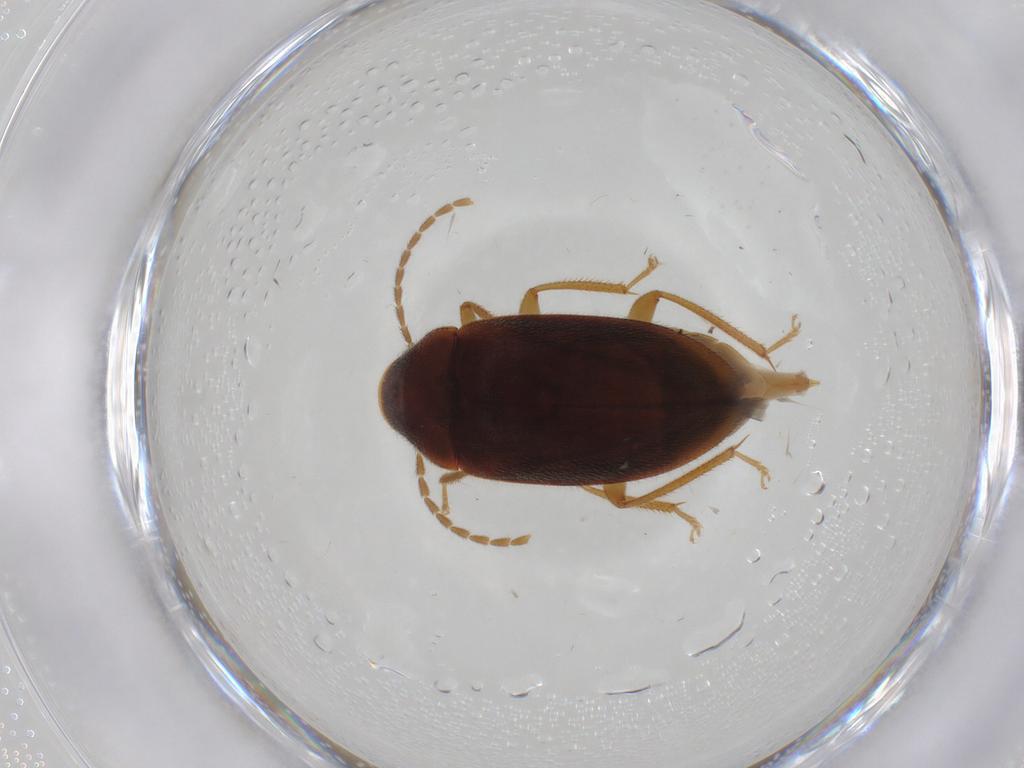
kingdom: Animalia
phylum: Arthropoda
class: Insecta
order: Coleoptera
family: Ptilodactylidae
